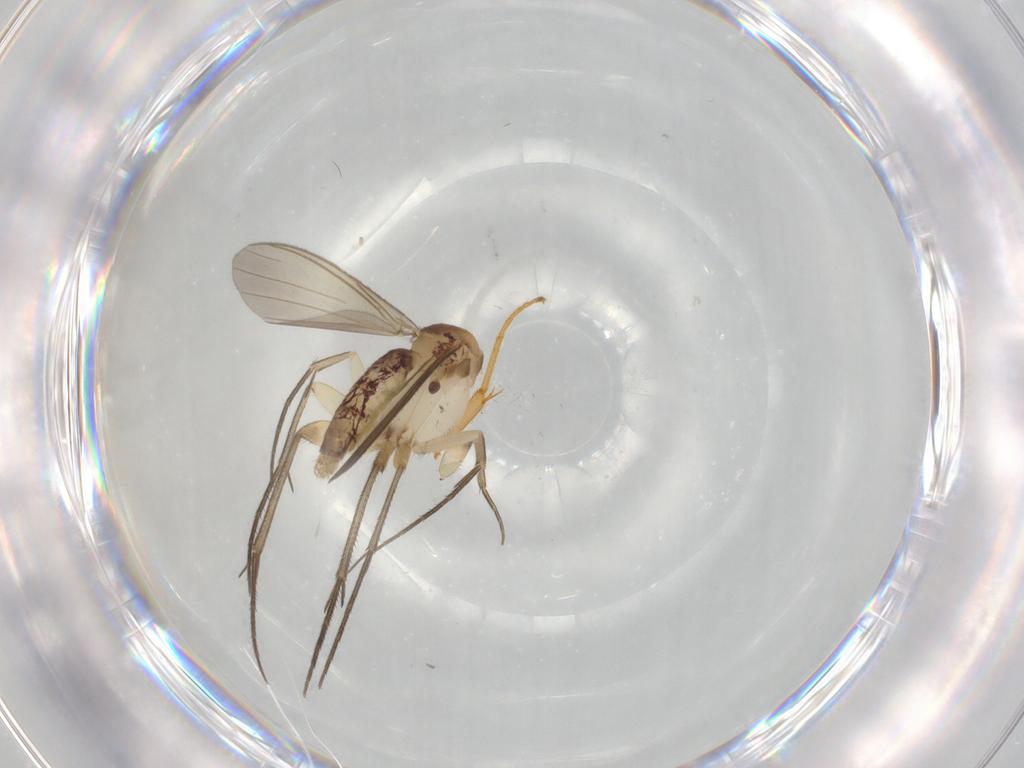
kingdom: Animalia
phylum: Arthropoda
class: Insecta
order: Diptera
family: Mycetophilidae
